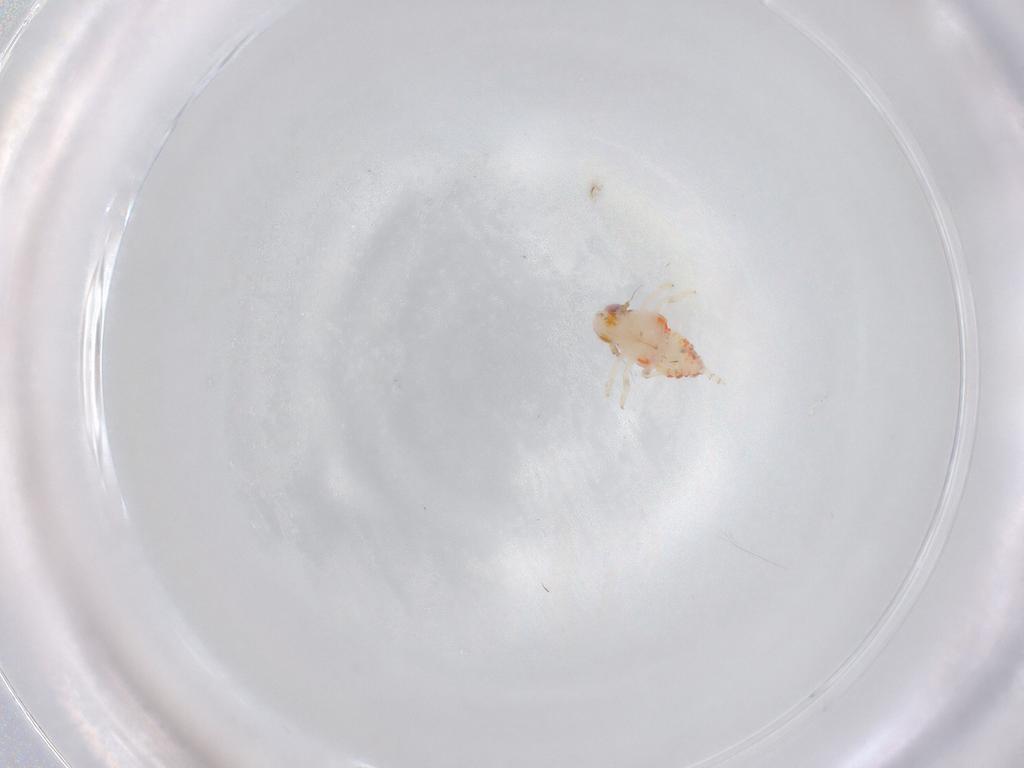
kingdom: Animalia
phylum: Arthropoda
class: Insecta
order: Hemiptera
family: Nogodinidae
